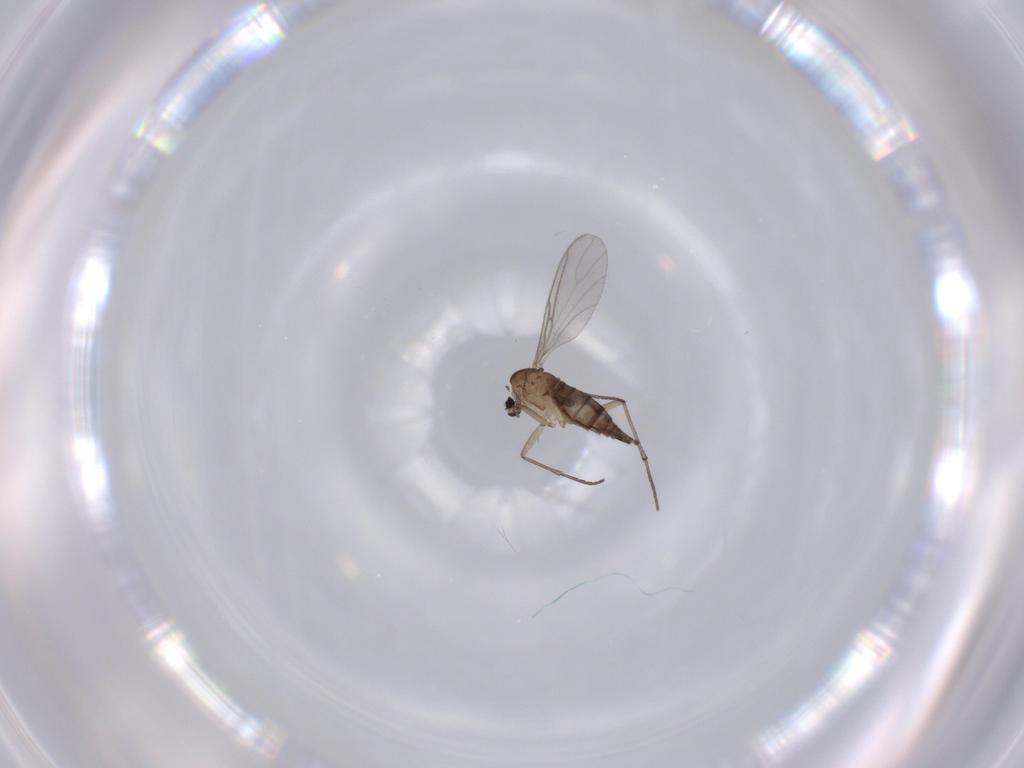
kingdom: Animalia
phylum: Arthropoda
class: Insecta
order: Diptera
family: Sciaridae
